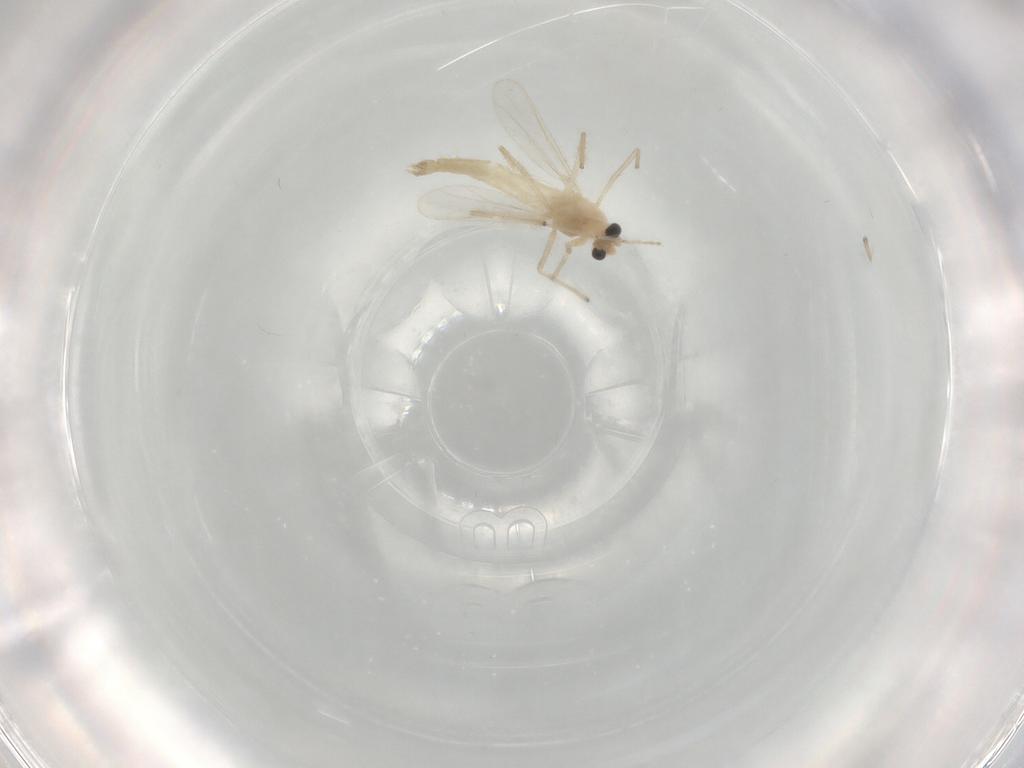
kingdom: Animalia
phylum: Arthropoda
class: Insecta
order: Diptera
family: Chironomidae
